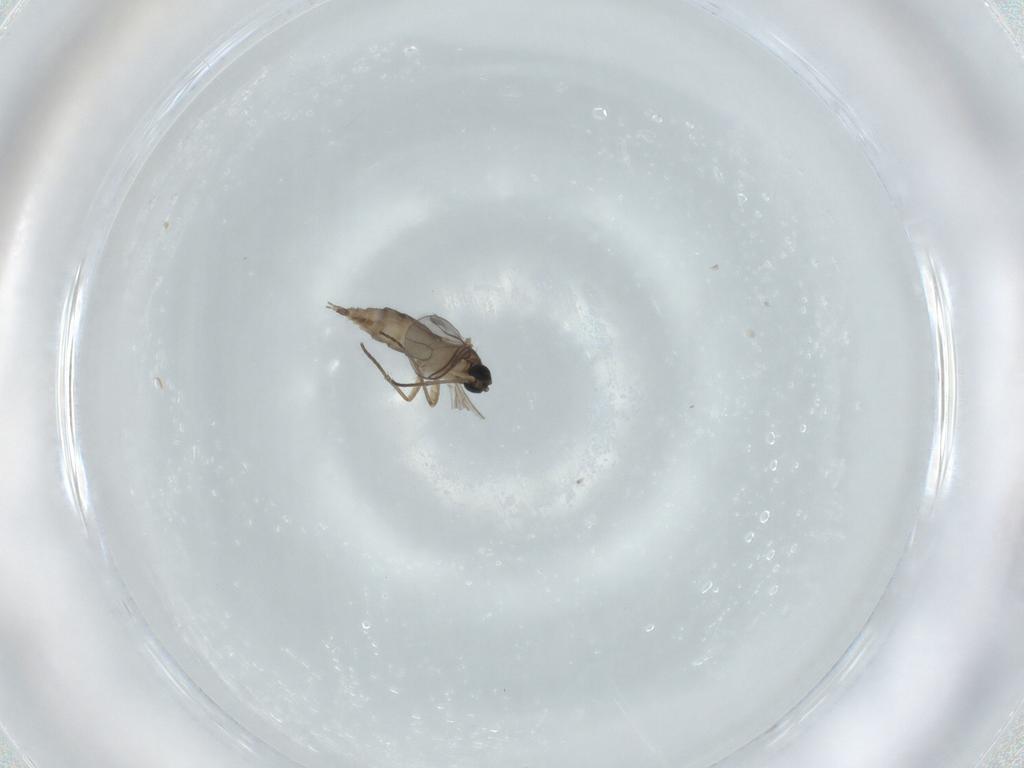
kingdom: Animalia
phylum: Arthropoda
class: Insecta
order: Diptera
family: Sciaridae
